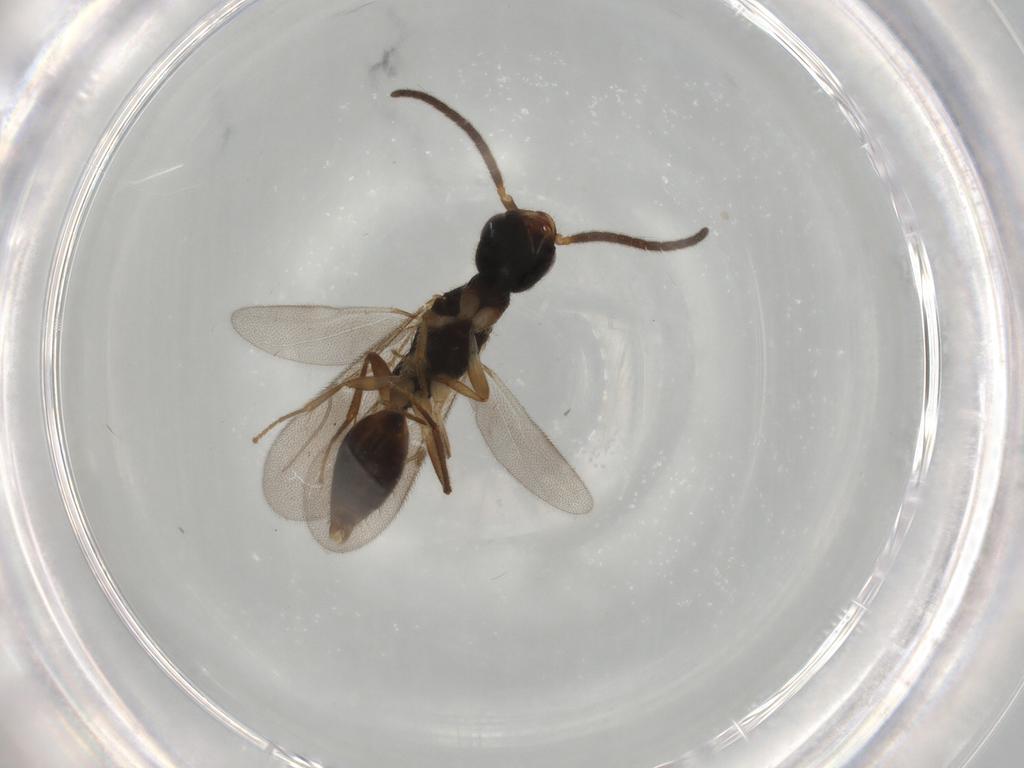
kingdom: Animalia
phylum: Arthropoda
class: Insecta
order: Hymenoptera
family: Bethylidae
